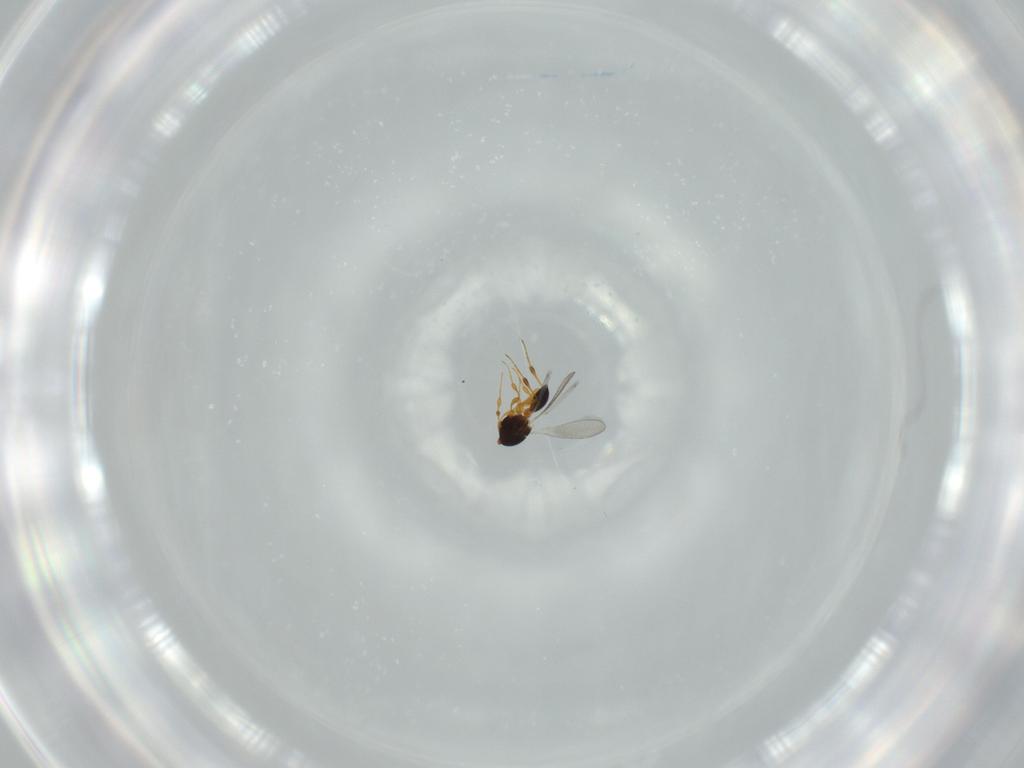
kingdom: Animalia
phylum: Arthropoda
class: Insecta
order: Hymenoptera
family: Platygastridae
